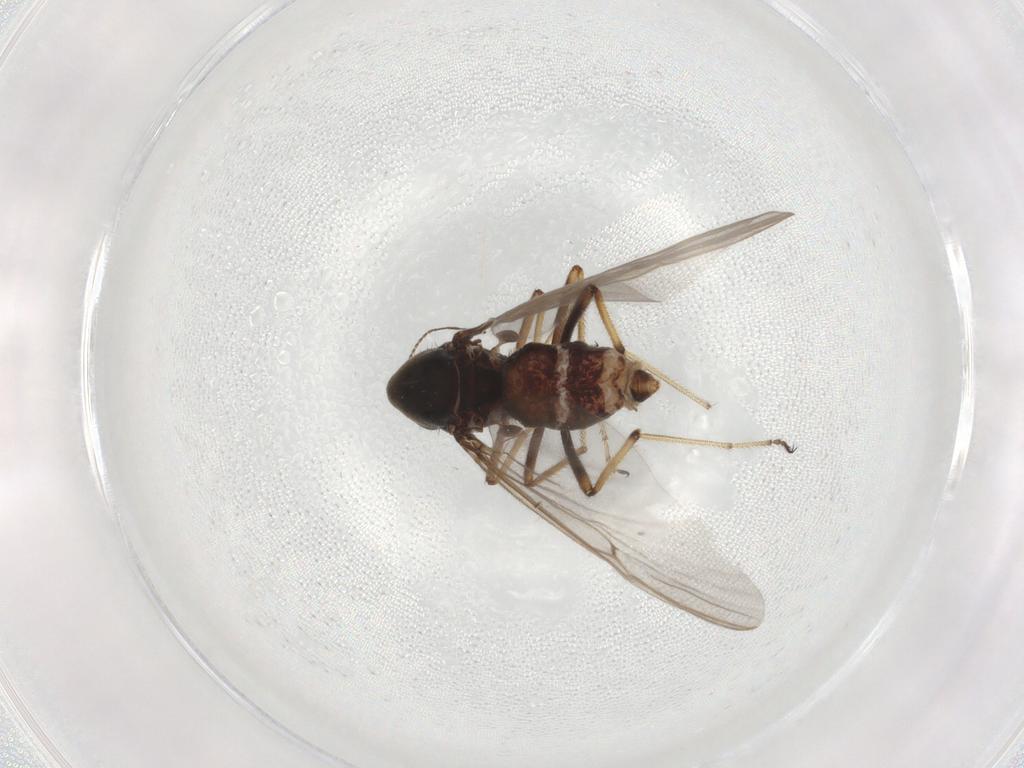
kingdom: Animalia
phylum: Arthropoda
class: Insecta
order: Diptera
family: Ceratopogonidae
